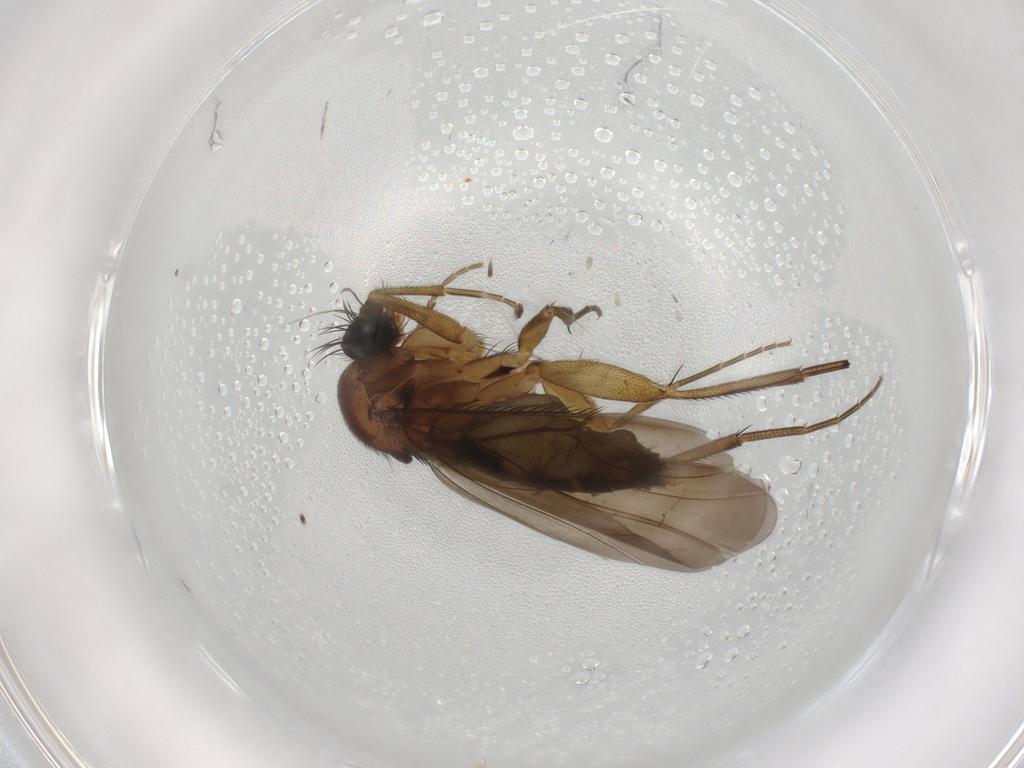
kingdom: Animalia
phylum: Arthropoda
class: Insecta
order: Diptera
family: Phoridae
